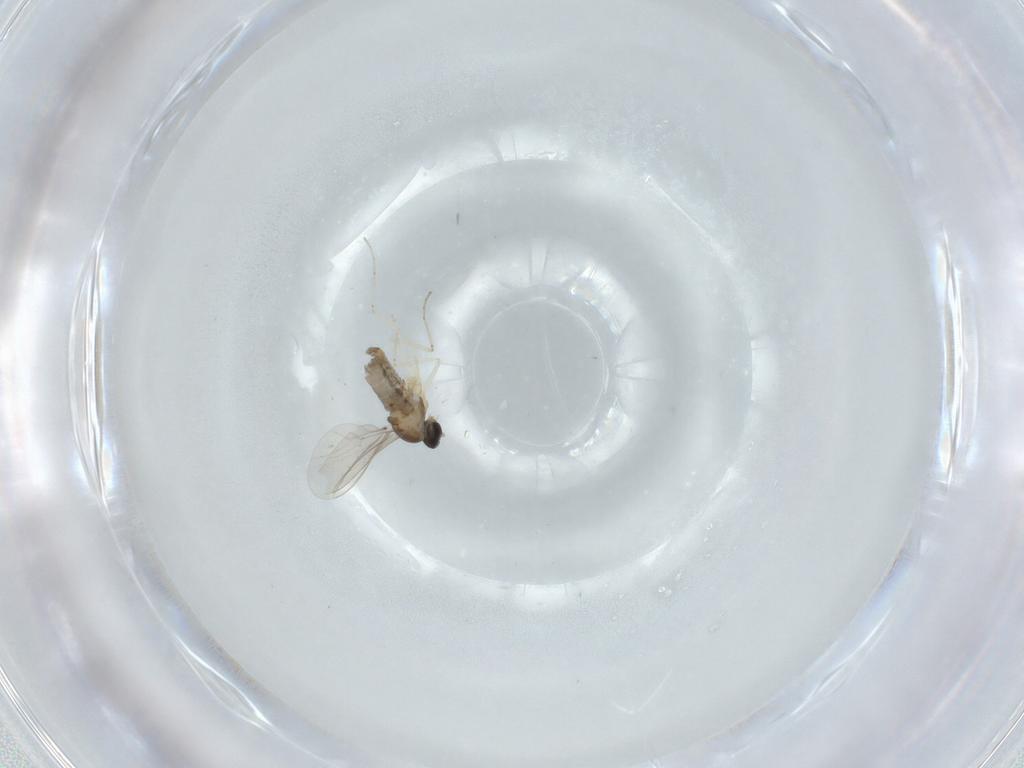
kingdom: Animalia
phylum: Arthropoda
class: Insecta
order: Diptera
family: Cecidomyiidae
